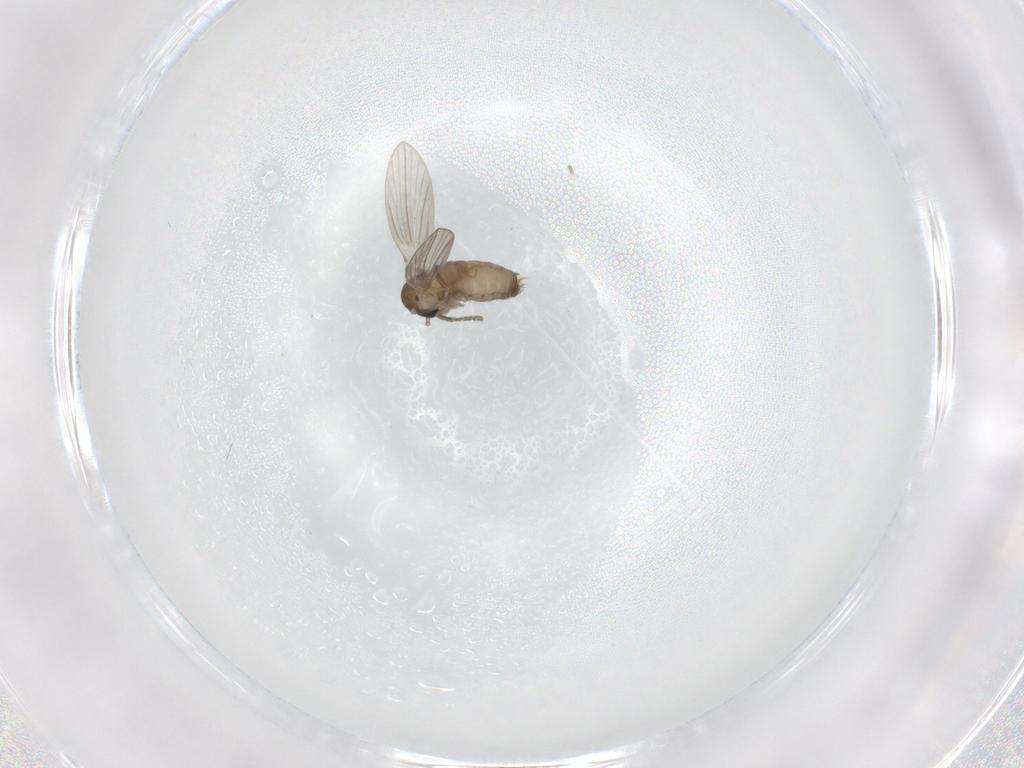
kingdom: Animalia
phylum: Arthropoda
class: Insecta
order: Diptera
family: Psychodidae
